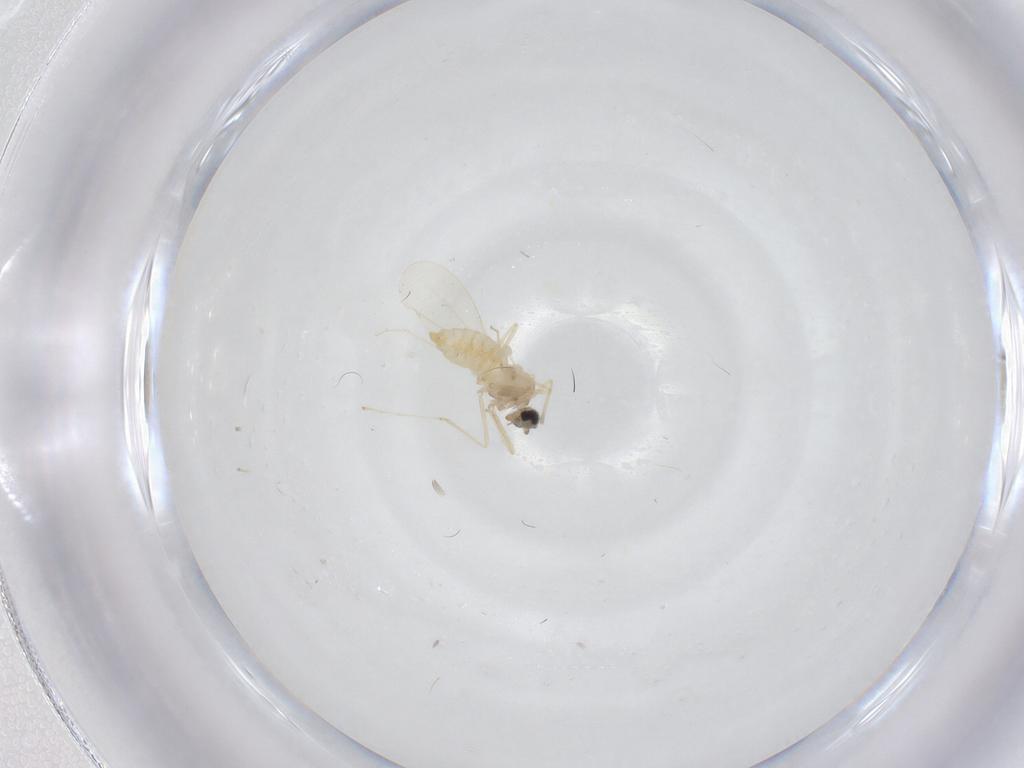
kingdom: Animalia
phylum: Arthropoda
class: Insecta
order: Diptera
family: Cecidomyiidae
